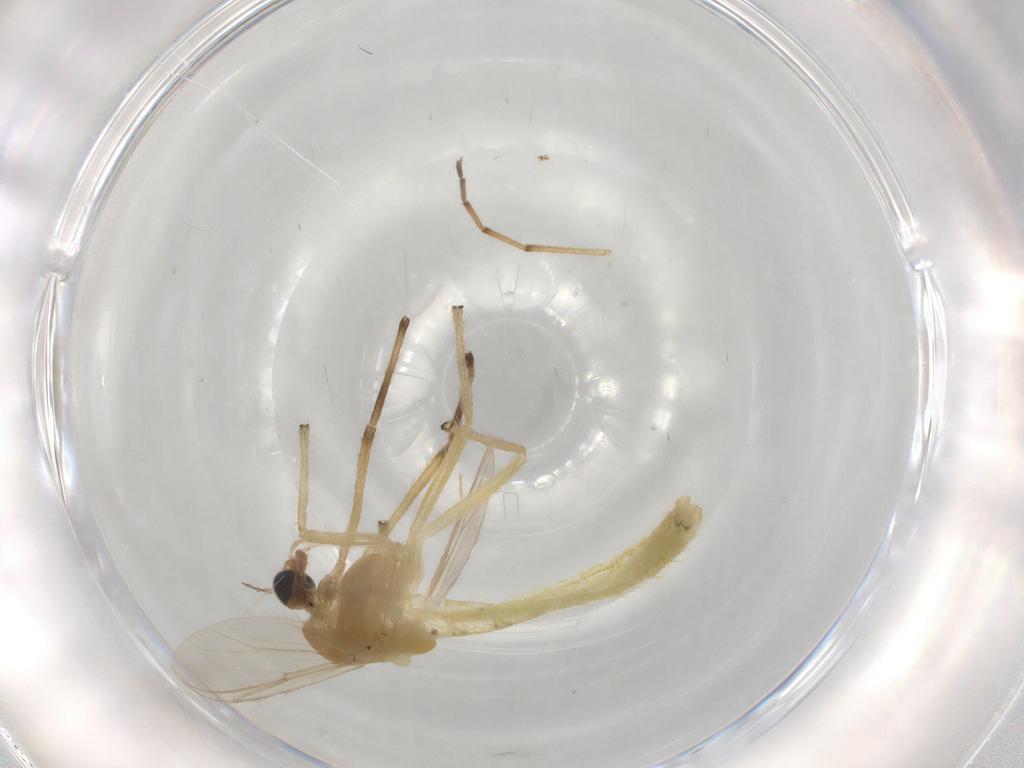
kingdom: Animalia
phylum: Arthropoda
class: Insecta
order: Diptera
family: Chironomidae
